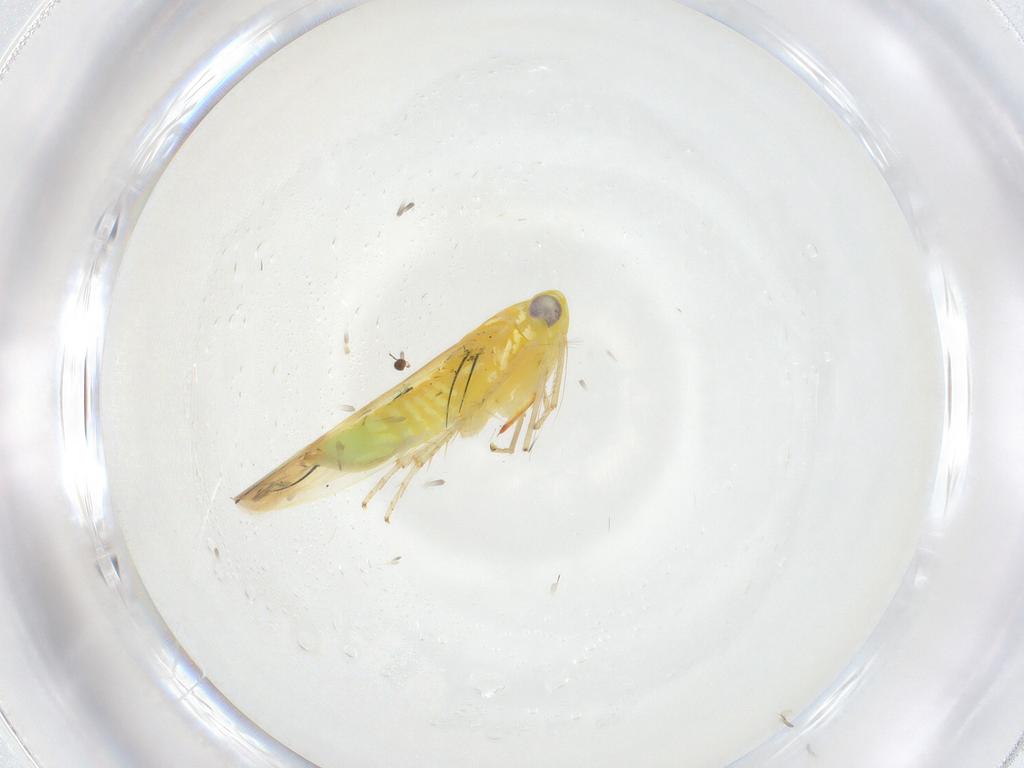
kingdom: Animalia
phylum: Arthropoda
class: Insecta
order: Hemiptera
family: Cicadellidae
